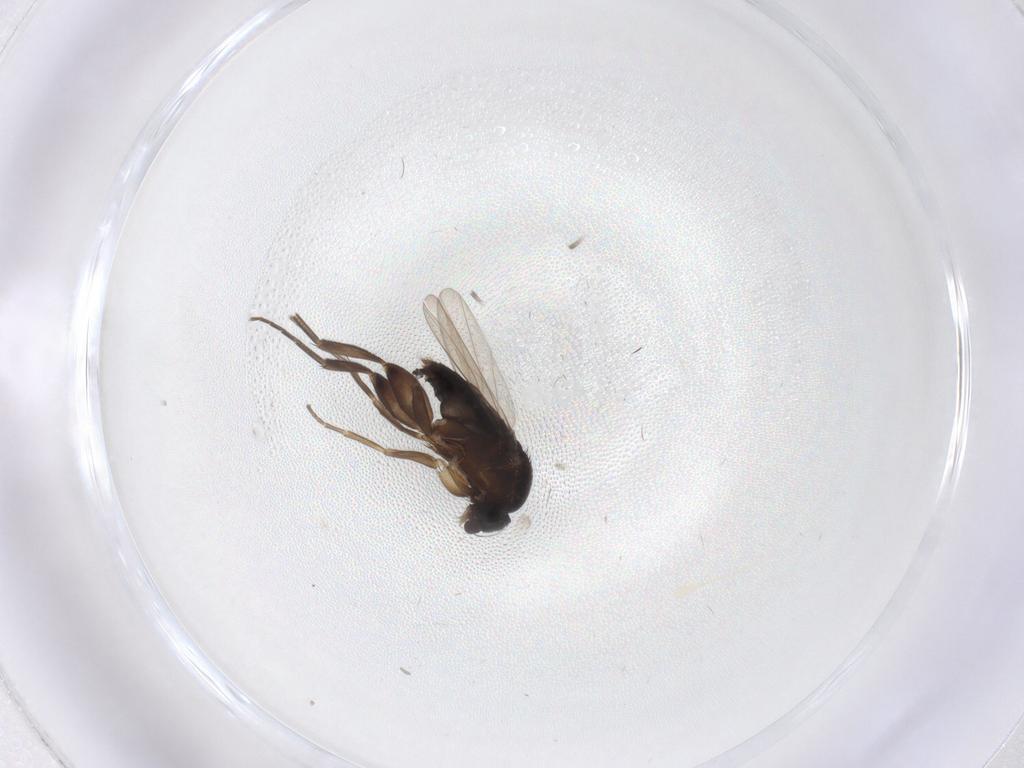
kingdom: Animalia
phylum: Arthropoda
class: Insecta
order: Diptera
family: Phoridae
